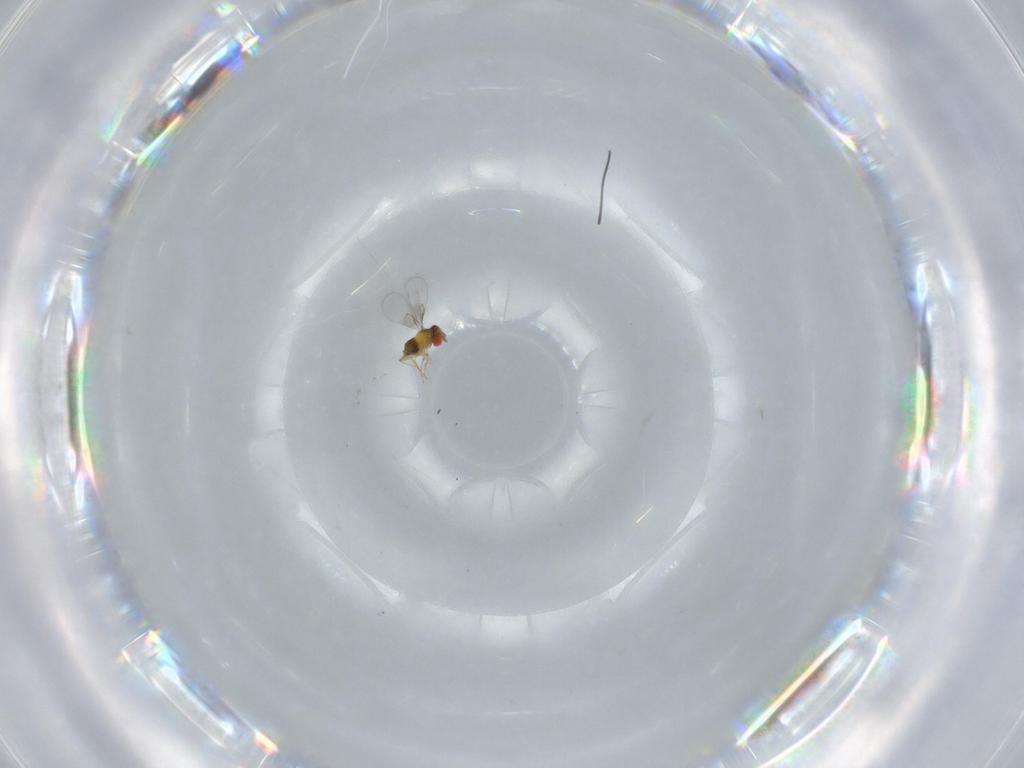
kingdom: Animalia
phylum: Arthropoda
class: Insecta
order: Hymenoptera
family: Trichogrammatidae
